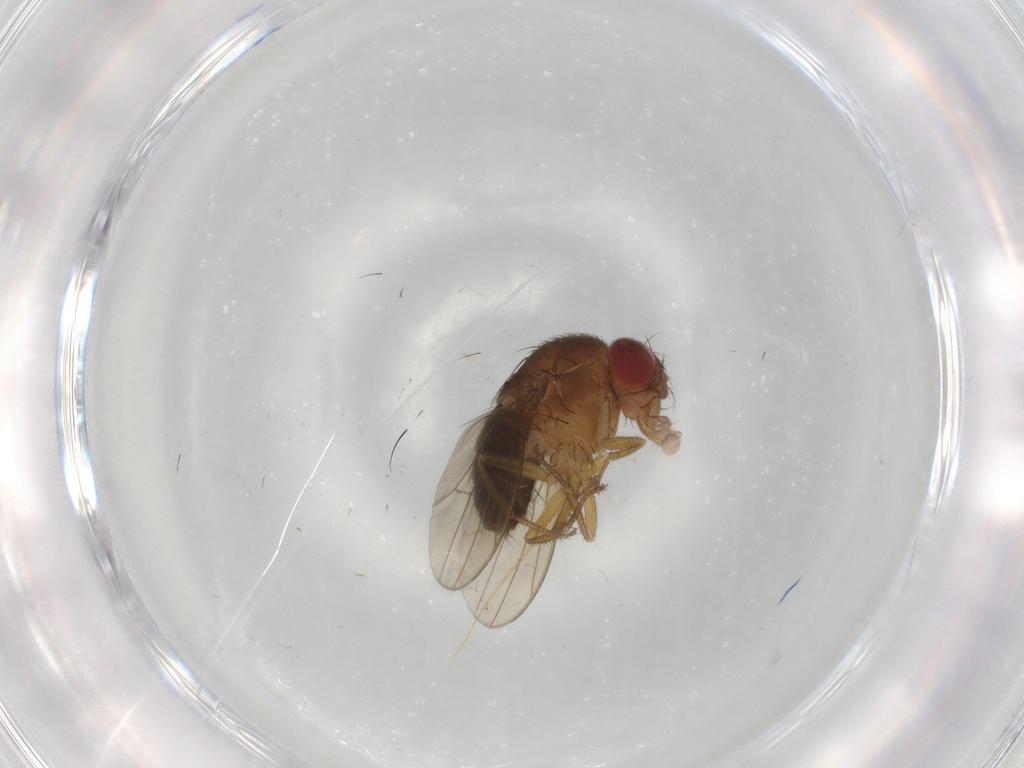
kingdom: Animalia
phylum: Arthropoda
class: Insecta
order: Diptera
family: Drosophilidae
